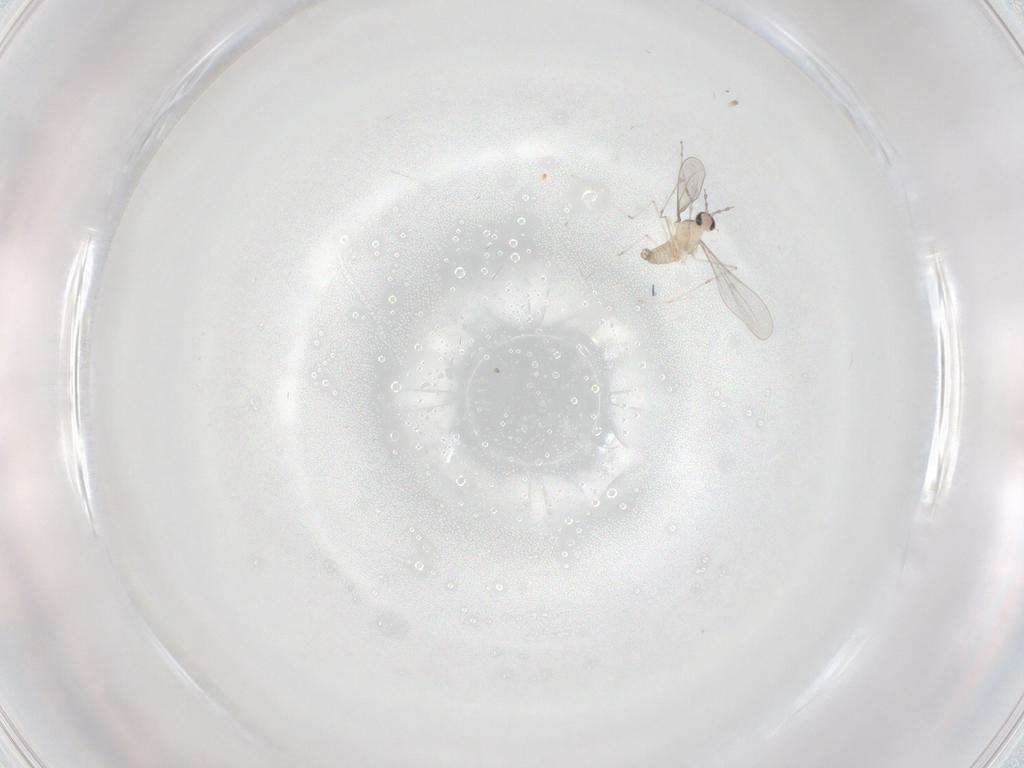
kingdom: Animalia
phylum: Arthropoda
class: Insecta
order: Diptera
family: Cecidomyiidae
